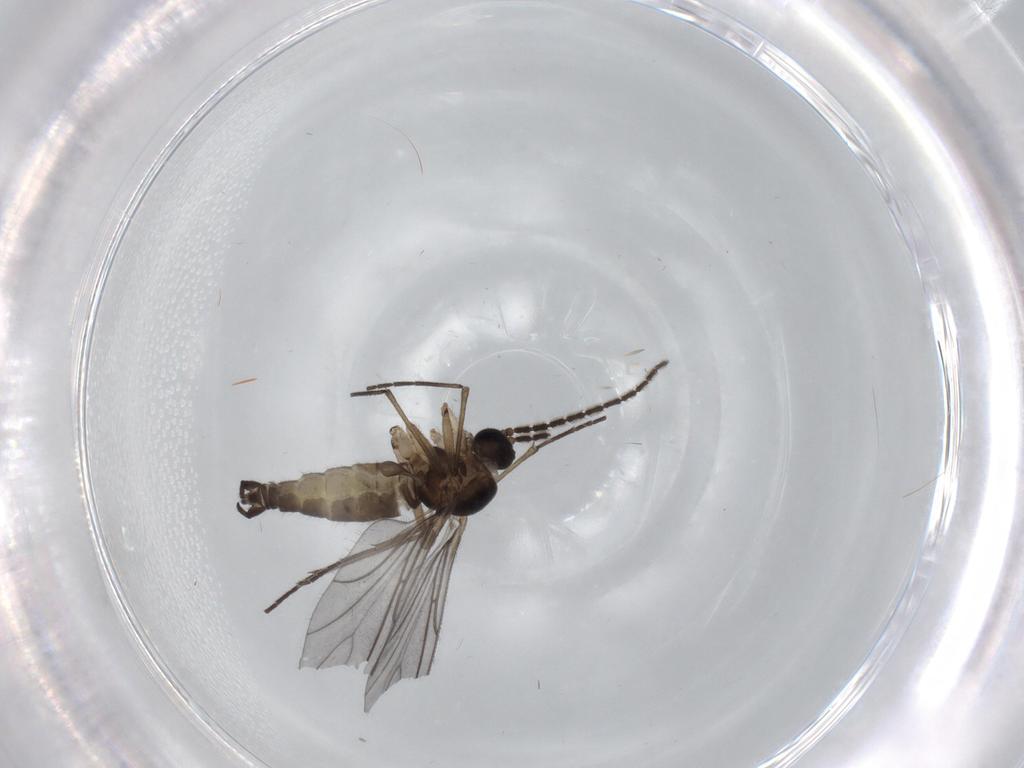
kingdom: Animalia
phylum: Arthropoda
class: Insecta
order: Diptera
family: Sciaridae
